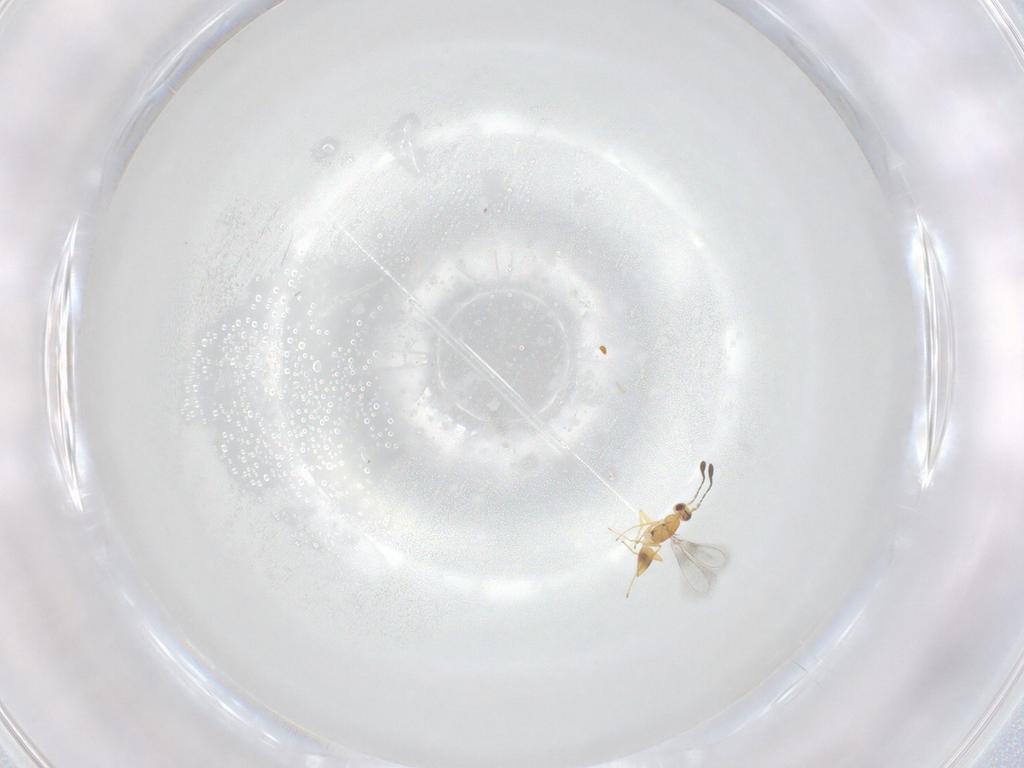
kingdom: Animalia
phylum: Arthropoda
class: Insecta
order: Hymenoptera
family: Mymaridae
